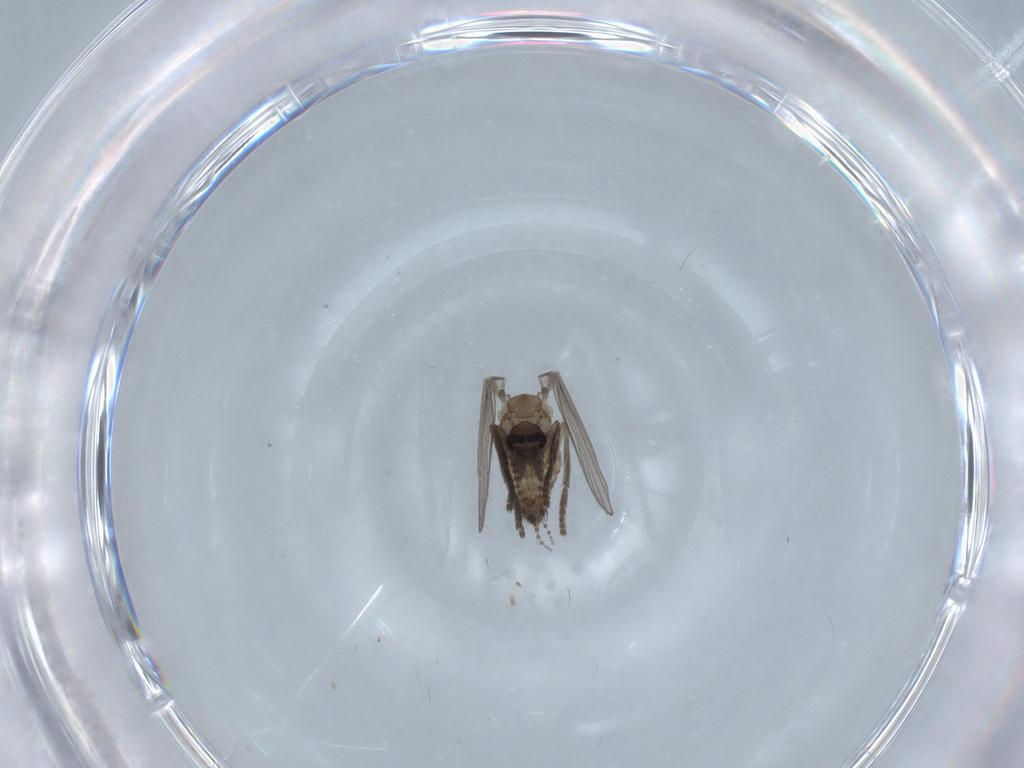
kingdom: Animalia
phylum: Arthropoda
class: Insecta
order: Diptera
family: Psychodidae
